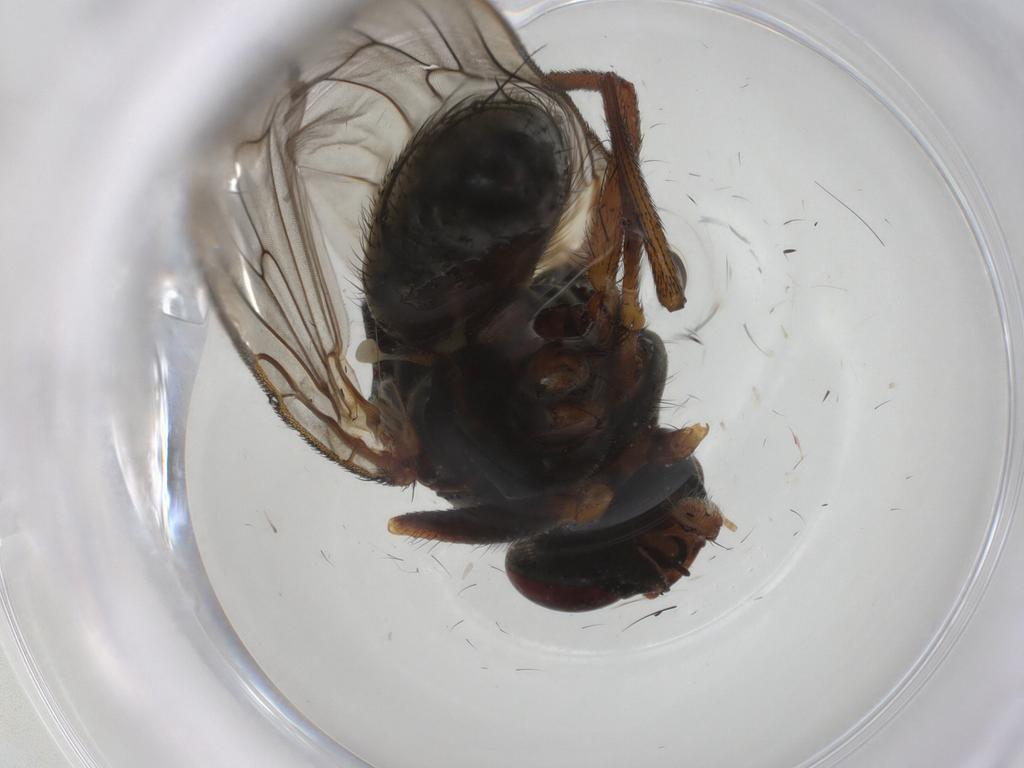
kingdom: Animalia
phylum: Arthropoda
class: Insecta
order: Diptera
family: Anthomyiidae
